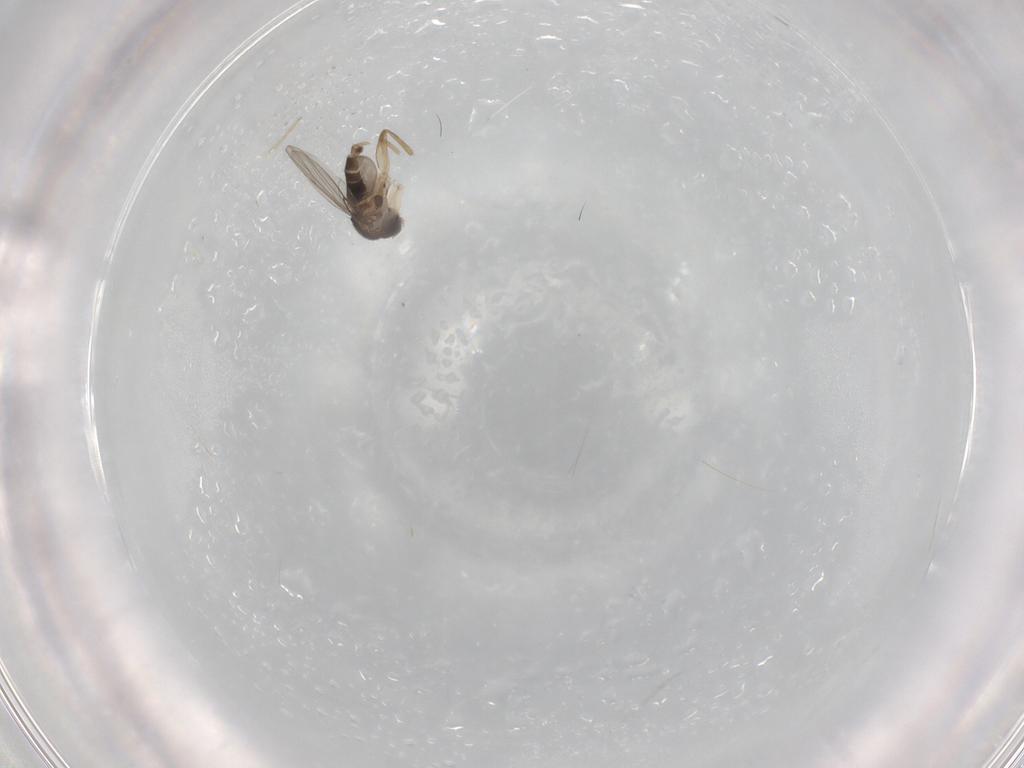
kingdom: Animalia
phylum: Arthropoda
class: Insecta
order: Diptera
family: Phoridae
